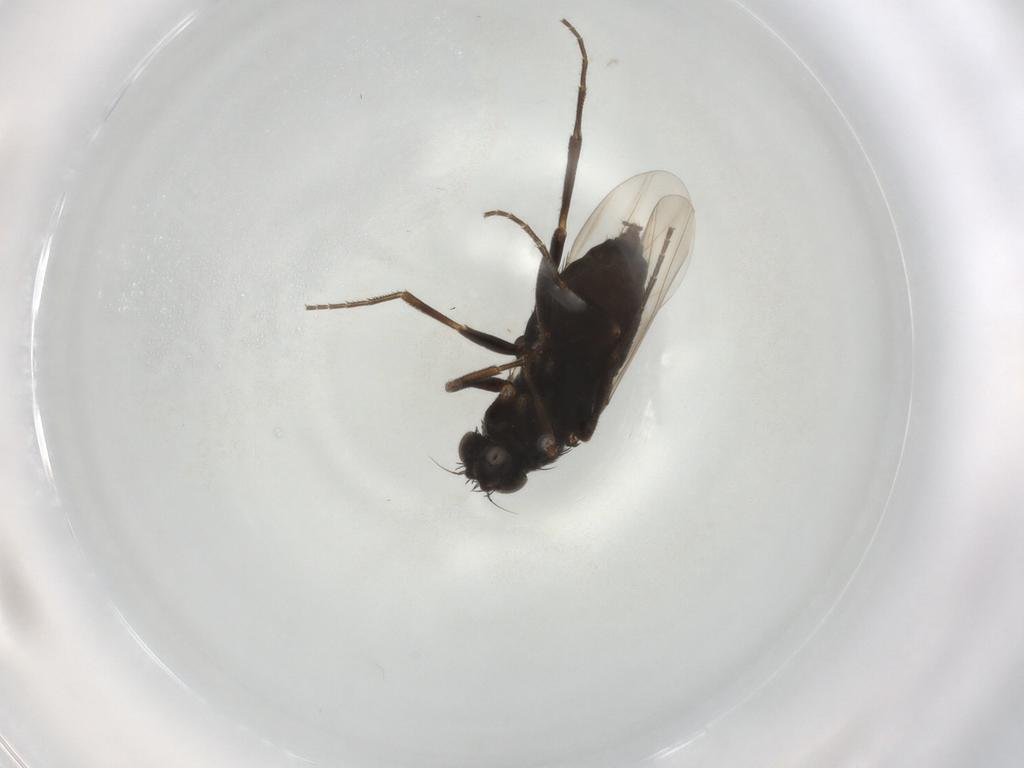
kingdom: Animalia
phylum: Arthropoda
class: Insecta
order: Diptera
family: Phoridae
